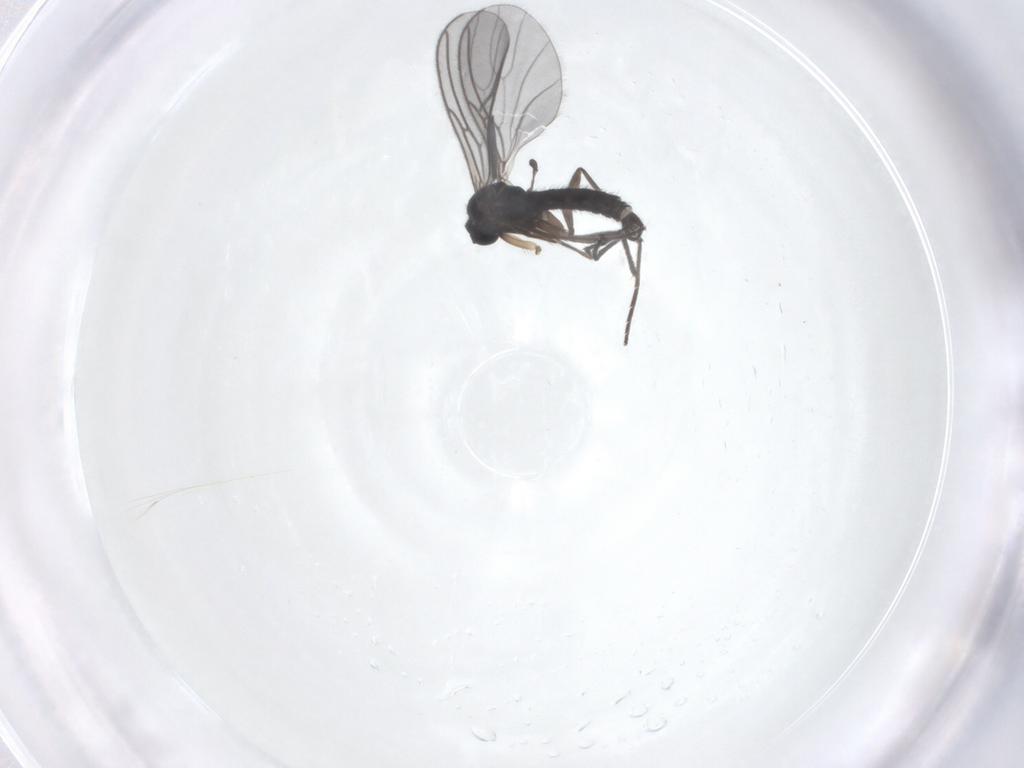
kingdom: Animalia
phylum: Arthropoda
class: Insecta
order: Diptera
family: Sciaridae
